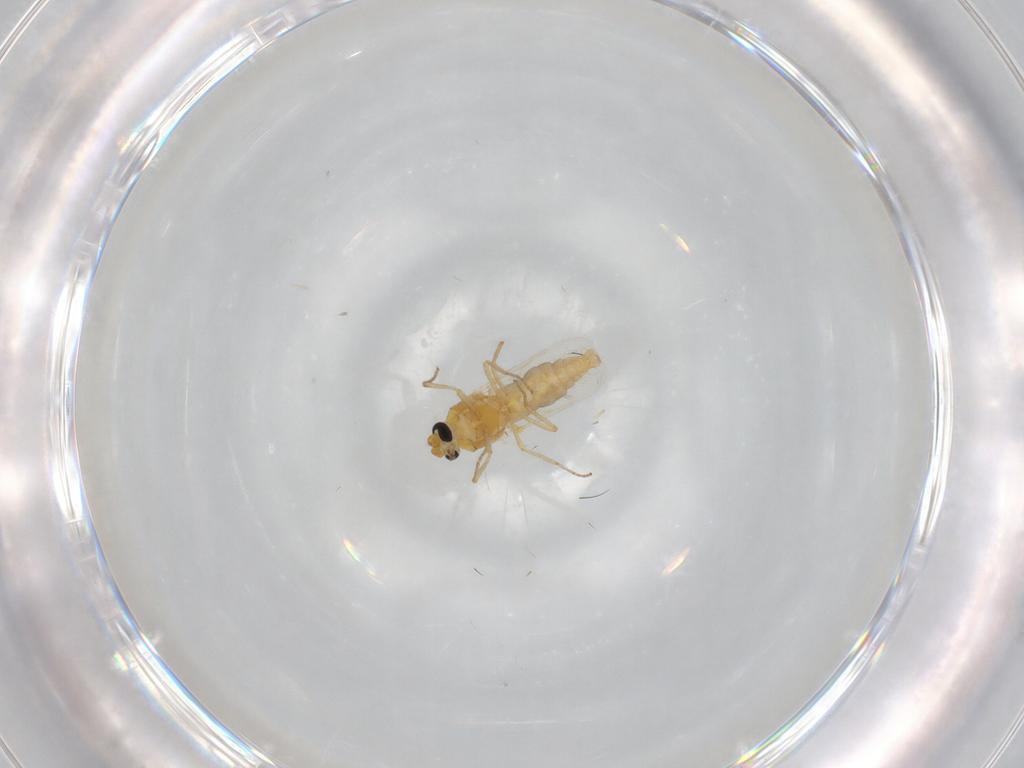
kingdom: Animalia
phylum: Arthropoda
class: Insecta
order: Diptera
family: Ceratopogonidae
